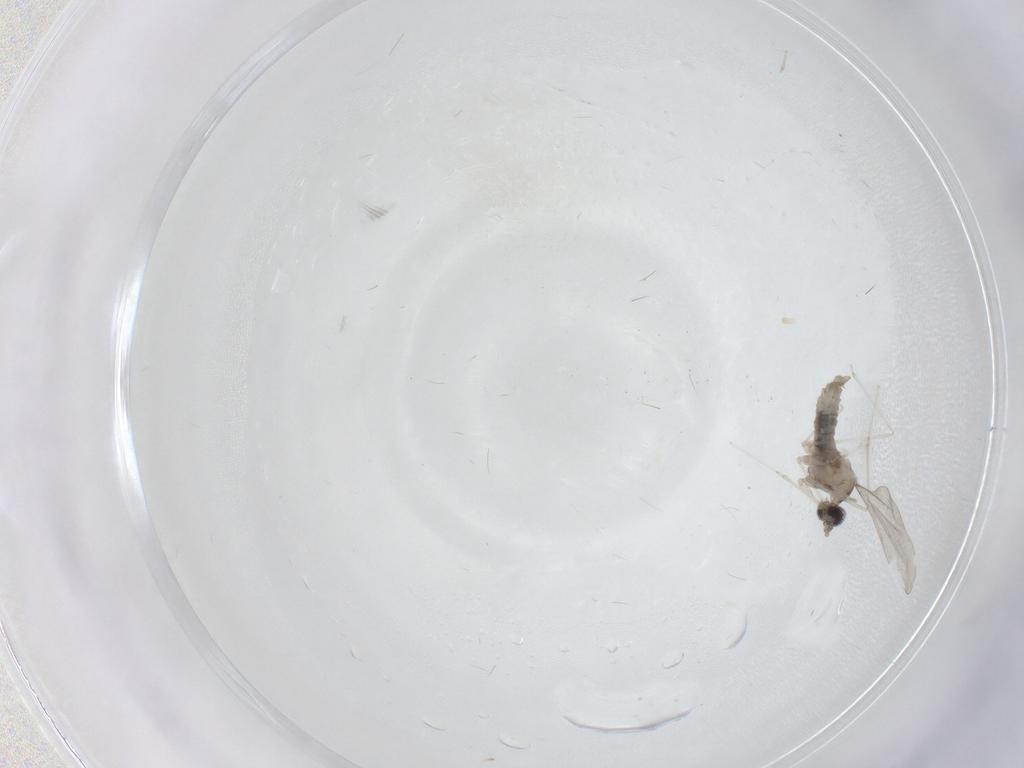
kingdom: Animalia
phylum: Arthropoda
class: Insecta
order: Diptera
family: Cecidomyiidae
